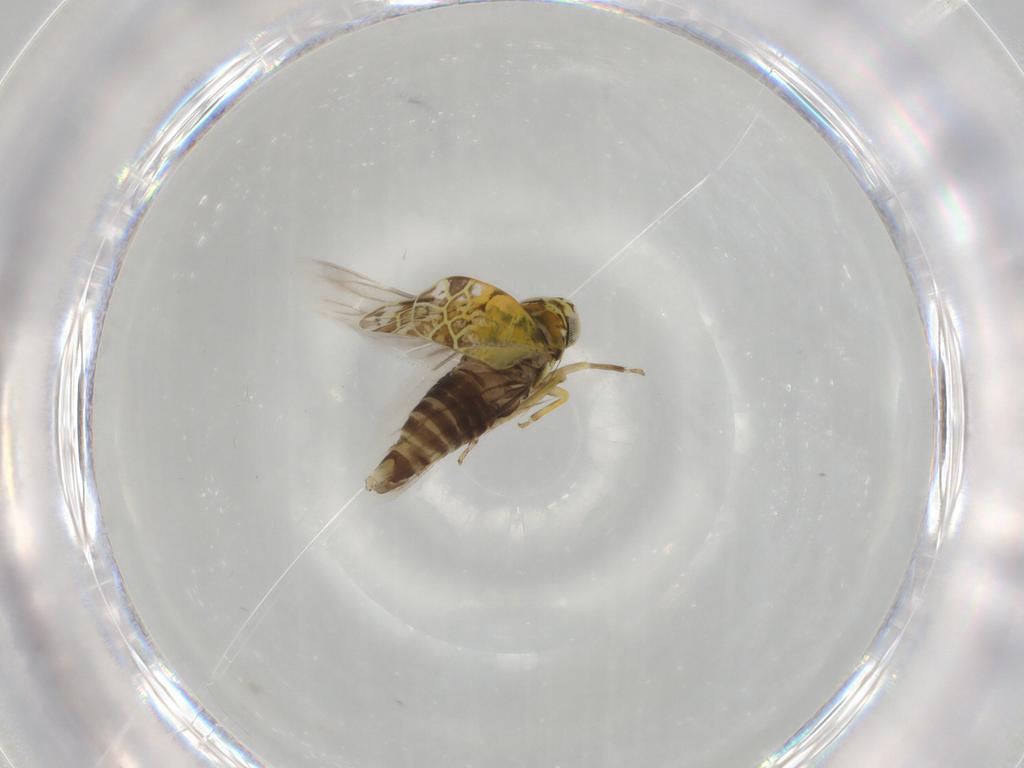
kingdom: Animalia
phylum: Arthropoda
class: Insecta
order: Hemiptera
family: Cicadellidae
